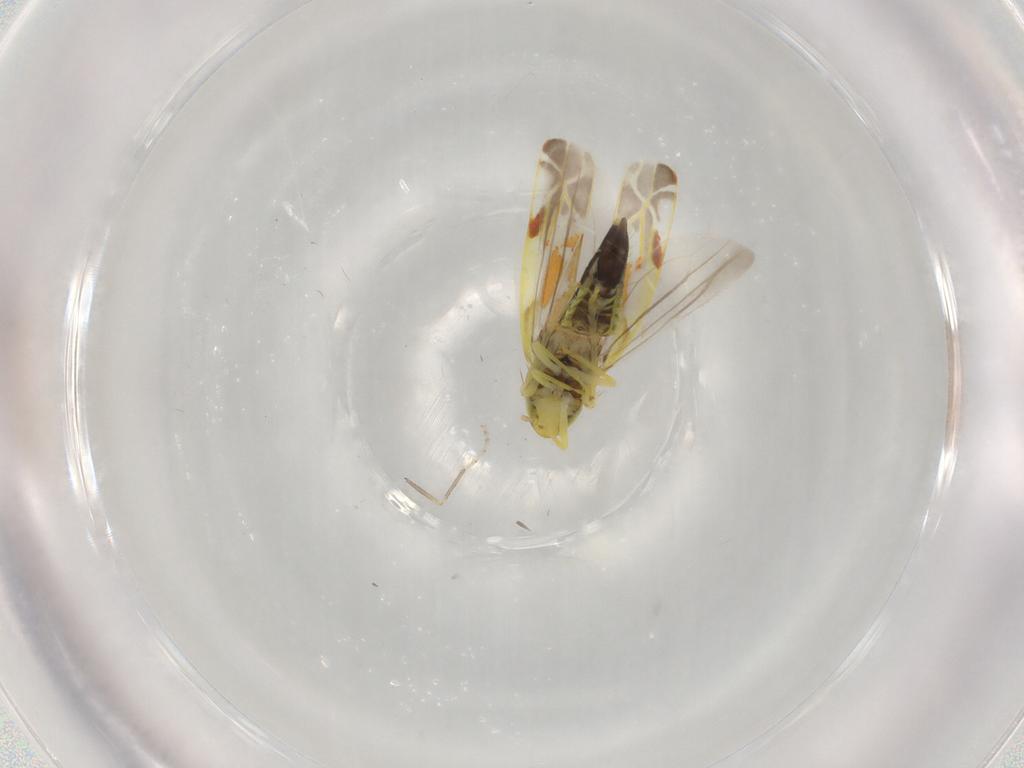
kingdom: Animalia
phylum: Arthropoda
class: Insecta
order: Hemiptera
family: Cicadellidae
